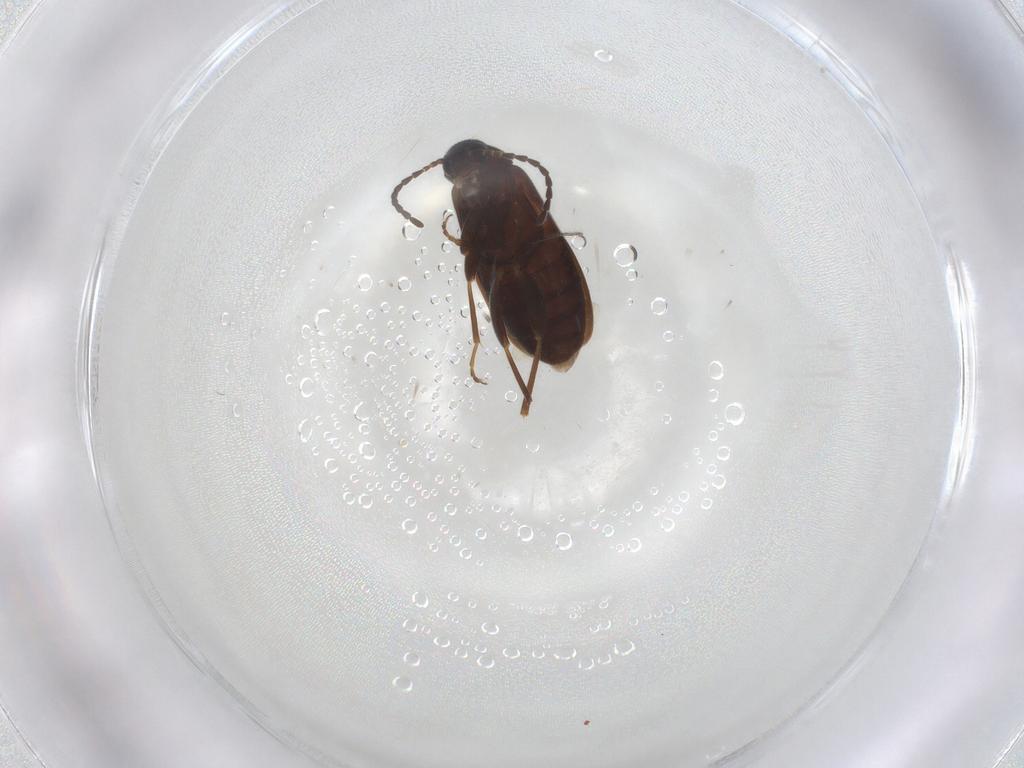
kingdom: Animalia
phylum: Arthropoda
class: Insecta
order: Coleoptera
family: Scraptiidae
